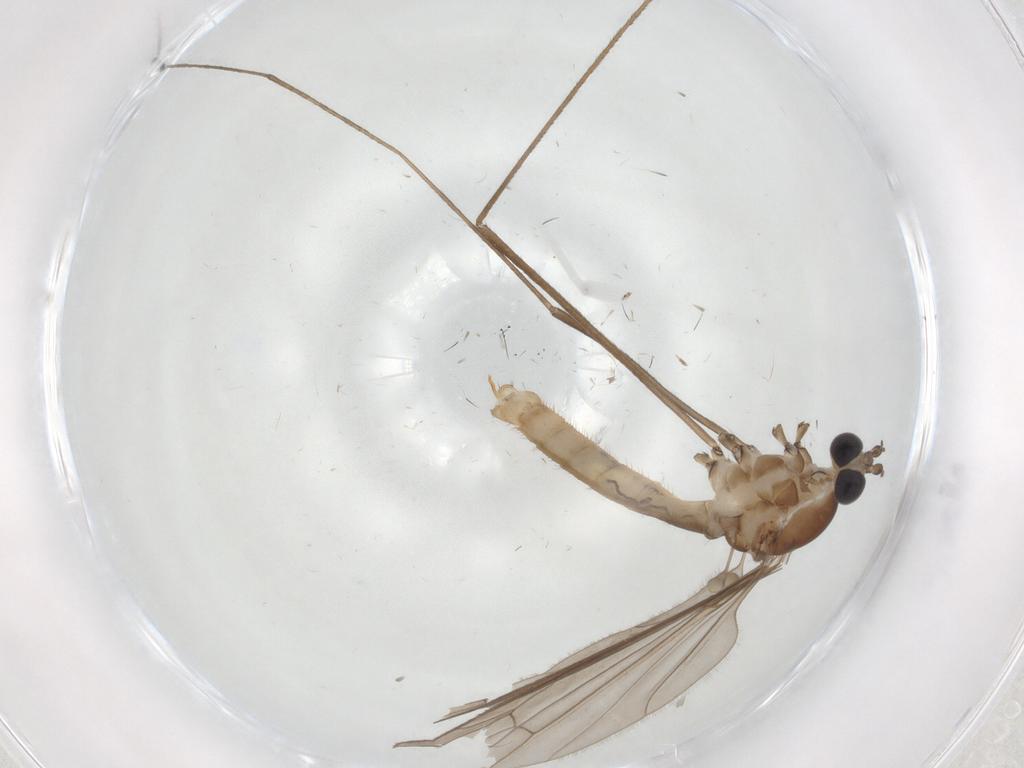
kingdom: Animalia
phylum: Arthropoda
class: Insecta
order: Diptera
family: Limoniidae
